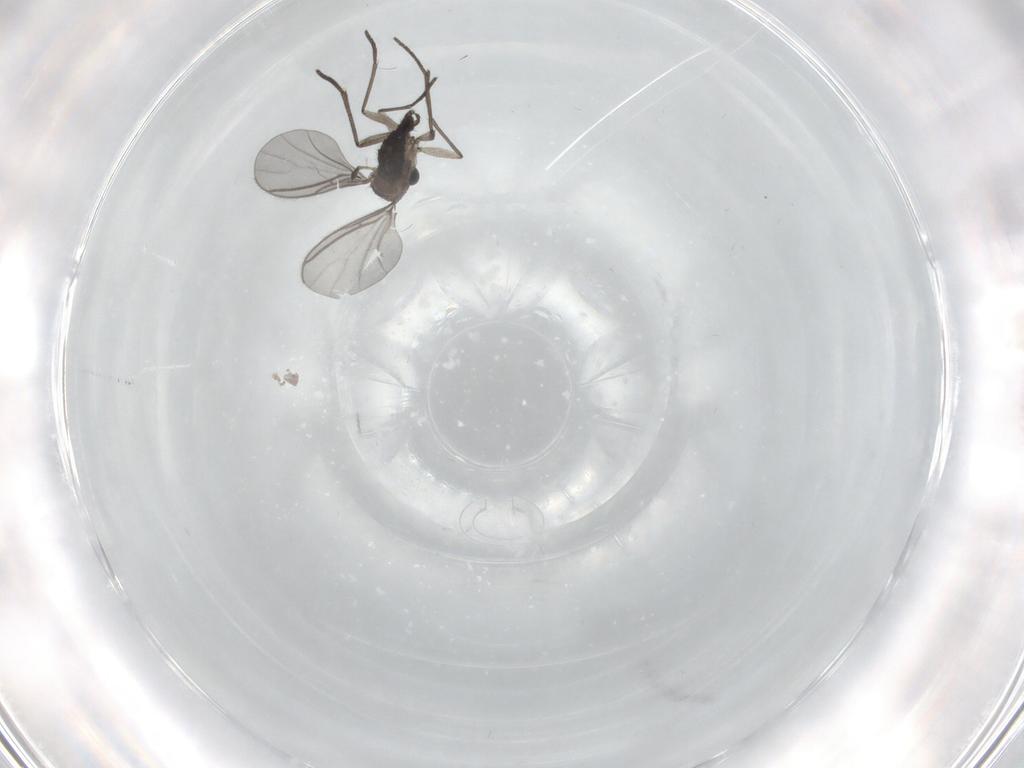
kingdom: Animalia
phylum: Arthropoda
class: Insecta
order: Diptera
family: Chironomidae
